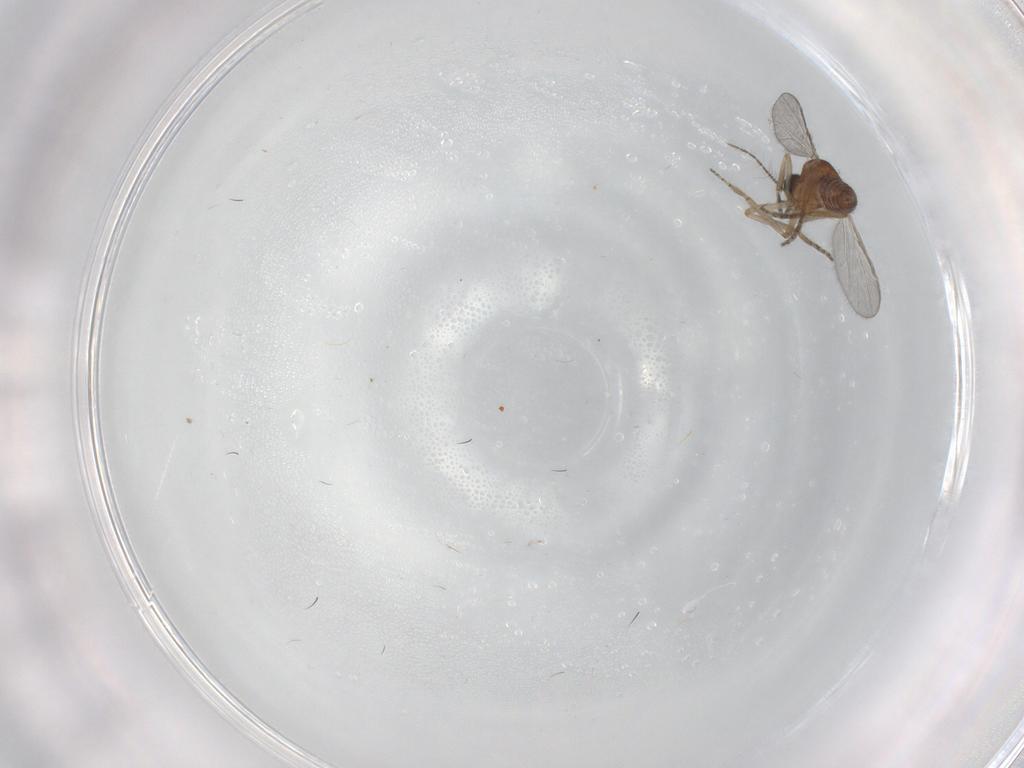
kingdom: Animalia
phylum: Arthropoda
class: Insecta
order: Diptera
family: Ceratopogonidae
